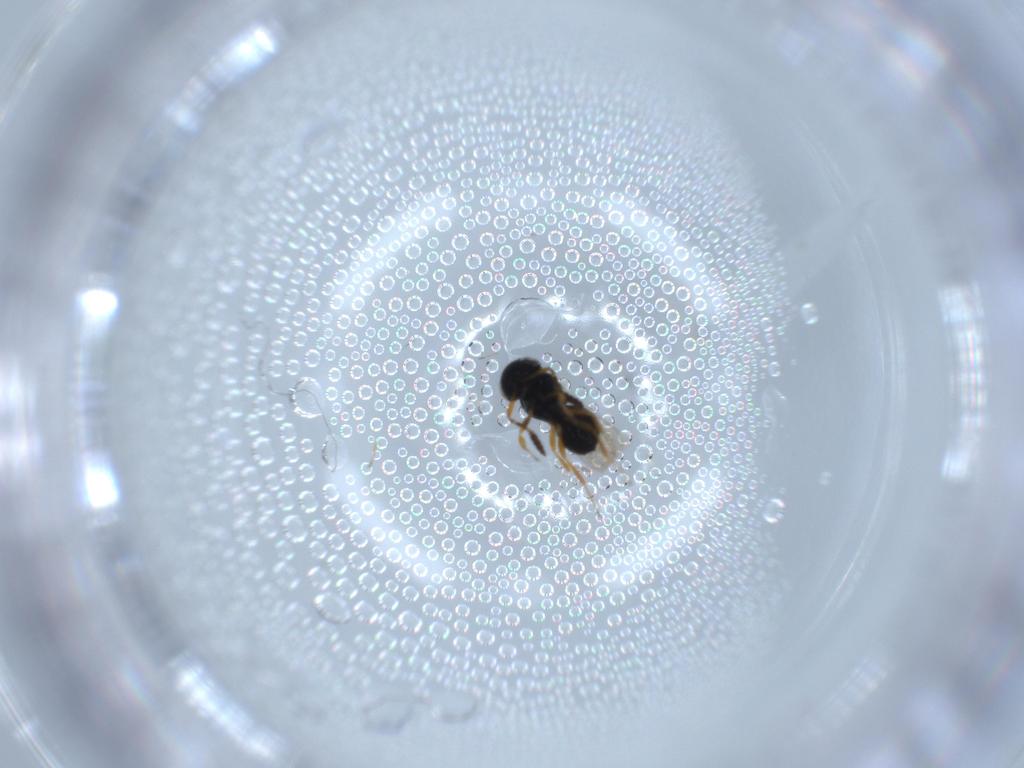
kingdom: Animalia
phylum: Arthropoda
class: Insecta
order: Hymenoptera
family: Scelionidae
